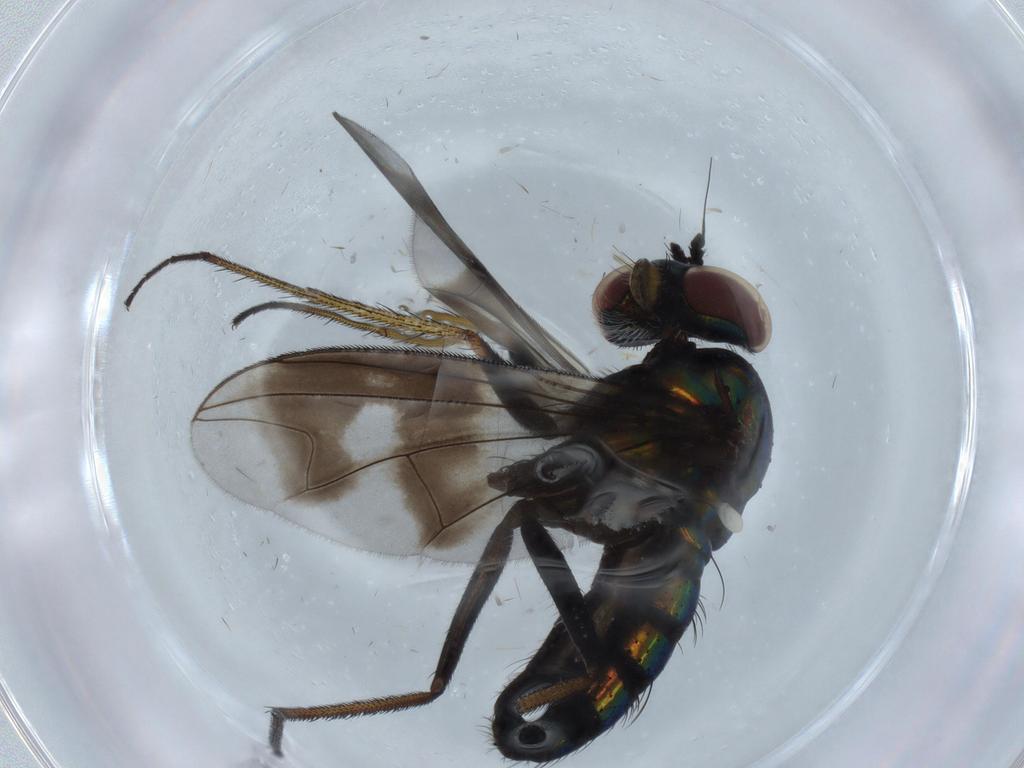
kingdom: Animalia
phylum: Arthropoda
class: Insecta
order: Diptera
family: Dolichopodidae
